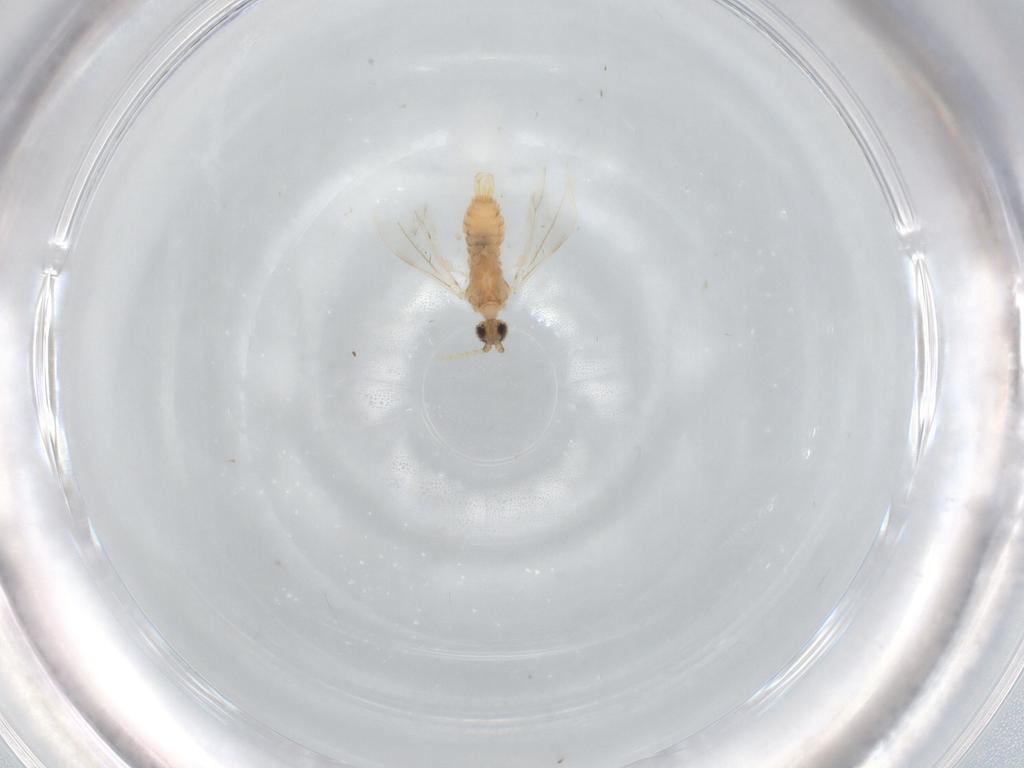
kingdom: Animalia
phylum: Arthropoda
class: Insecta
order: Diptera
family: Cecidomyiidae
